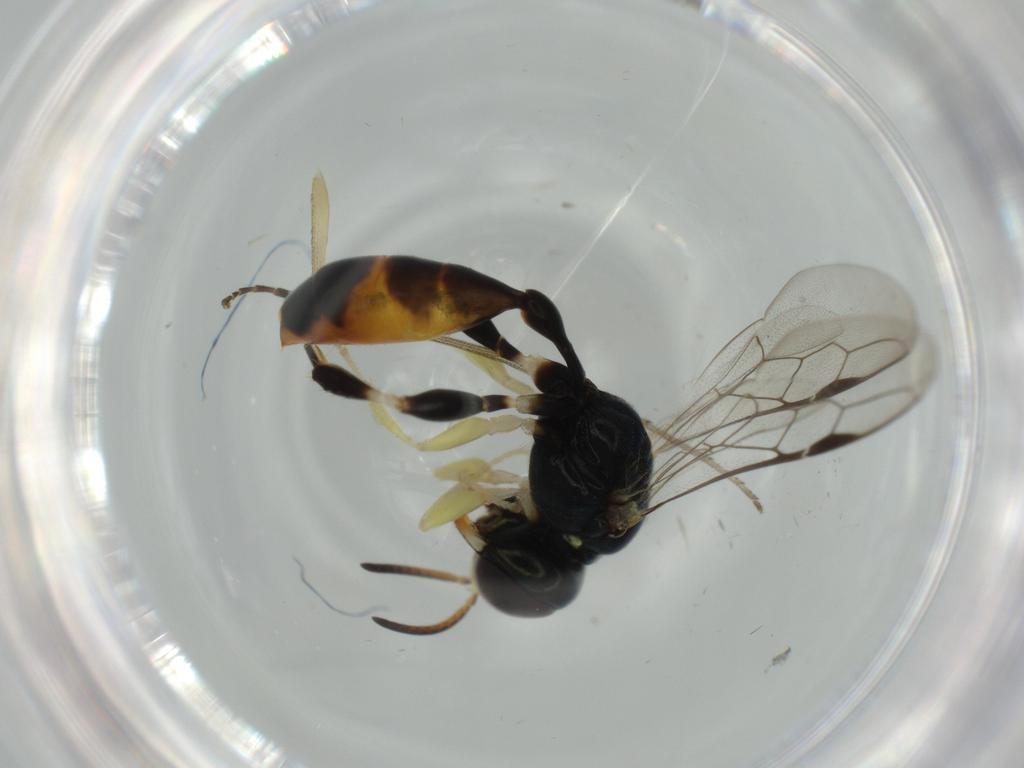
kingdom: Animalia
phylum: Arthropoda
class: Insecta
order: Hymenoptera
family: Crabronidae
